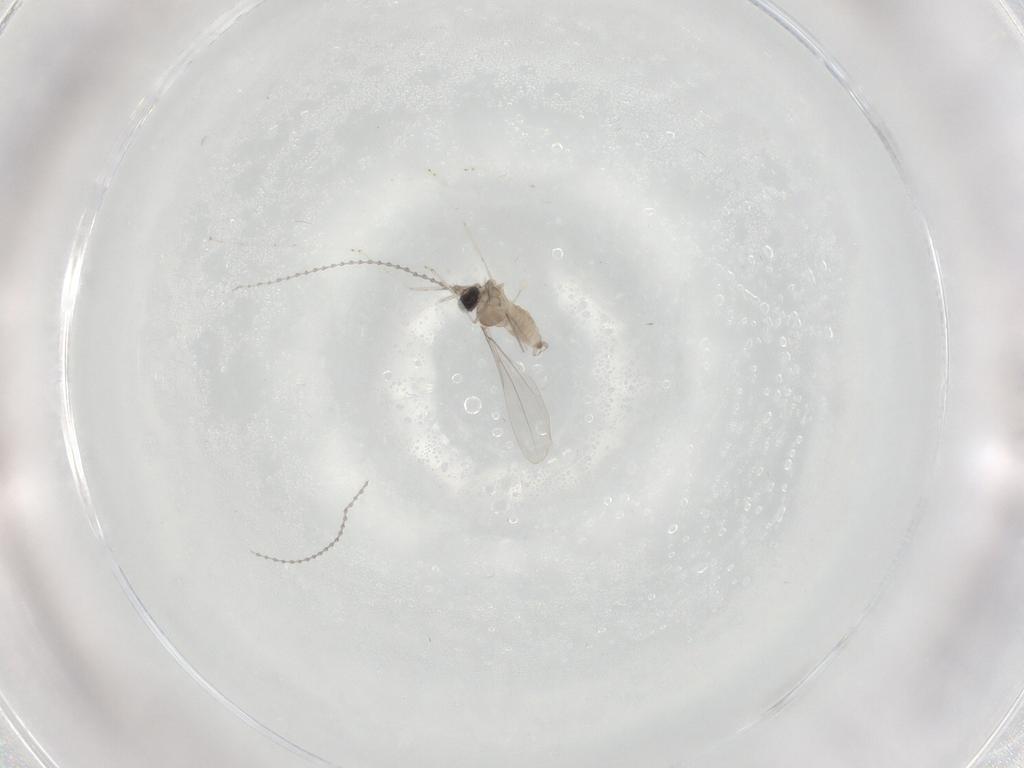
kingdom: Animalia
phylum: Arthropoda
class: Insecta
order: Diptera
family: Cecidomyiidae
